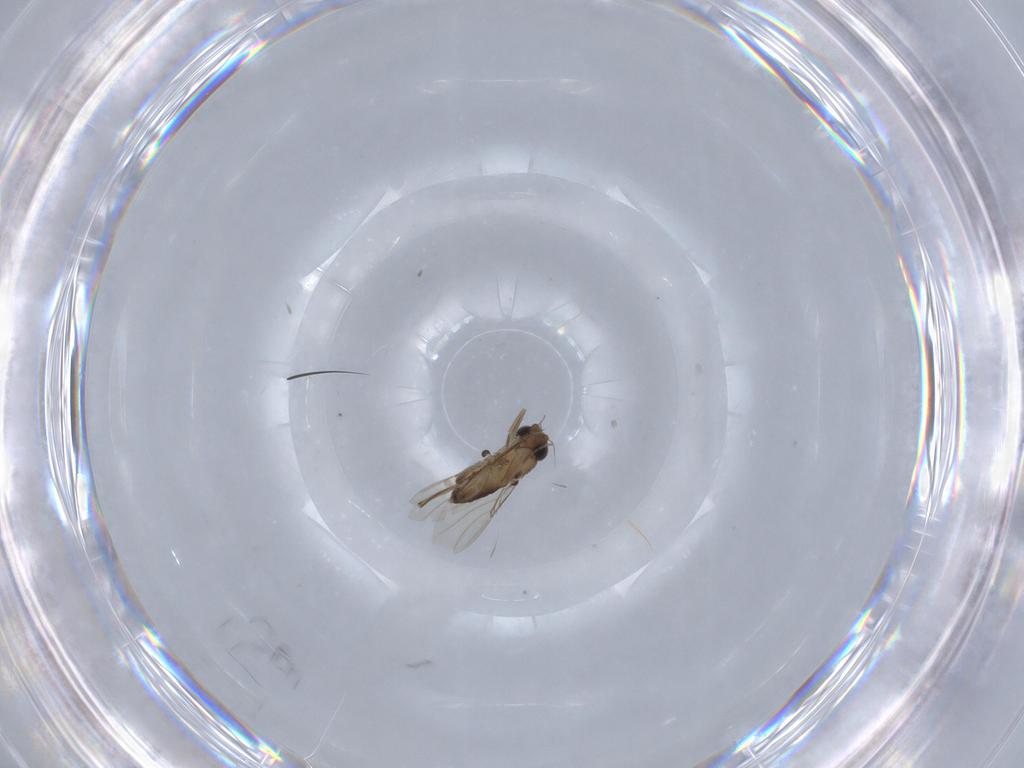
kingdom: Animalia
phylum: Arthropoda
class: Insecta
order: Diptera
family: Phoridae
